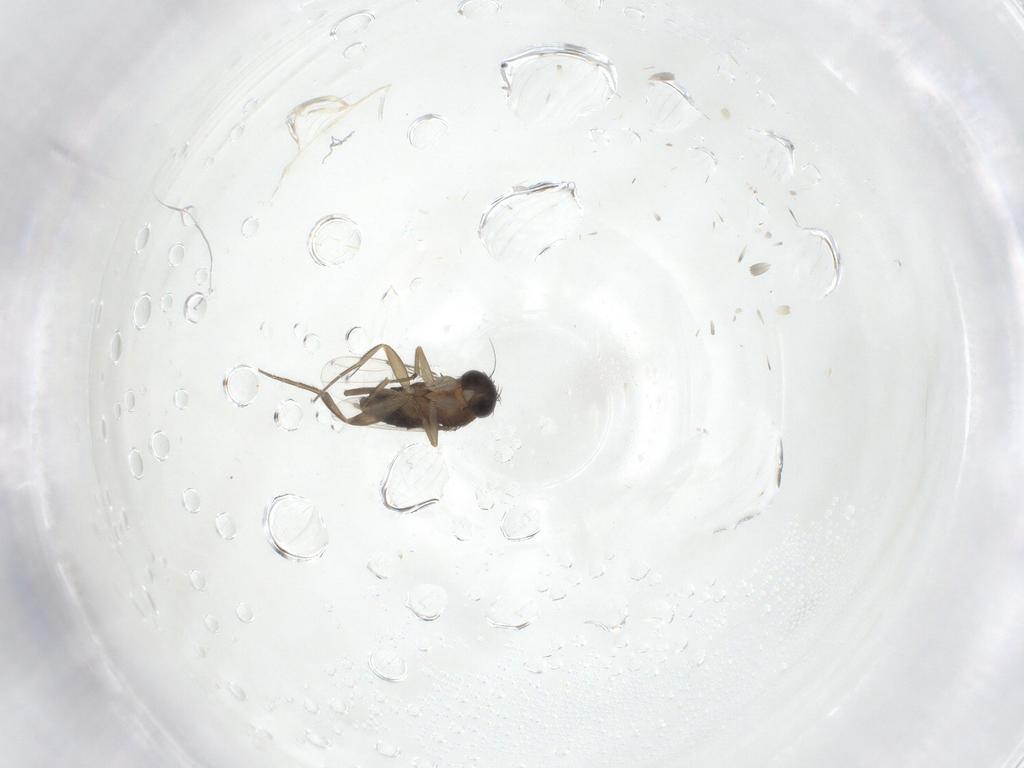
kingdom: Animalia
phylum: Arthropoda
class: Insecta
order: Diptera
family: Phoridae
